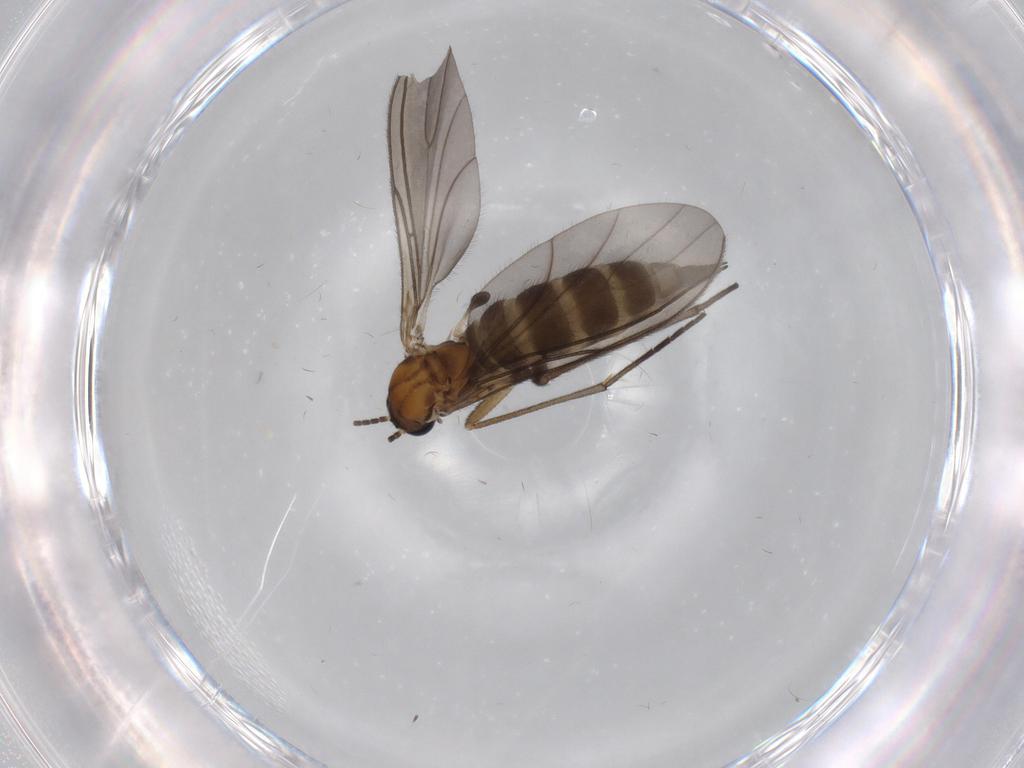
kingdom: Animalia
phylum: Arthropoda
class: Insecta
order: Diptera
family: Sciaridae
